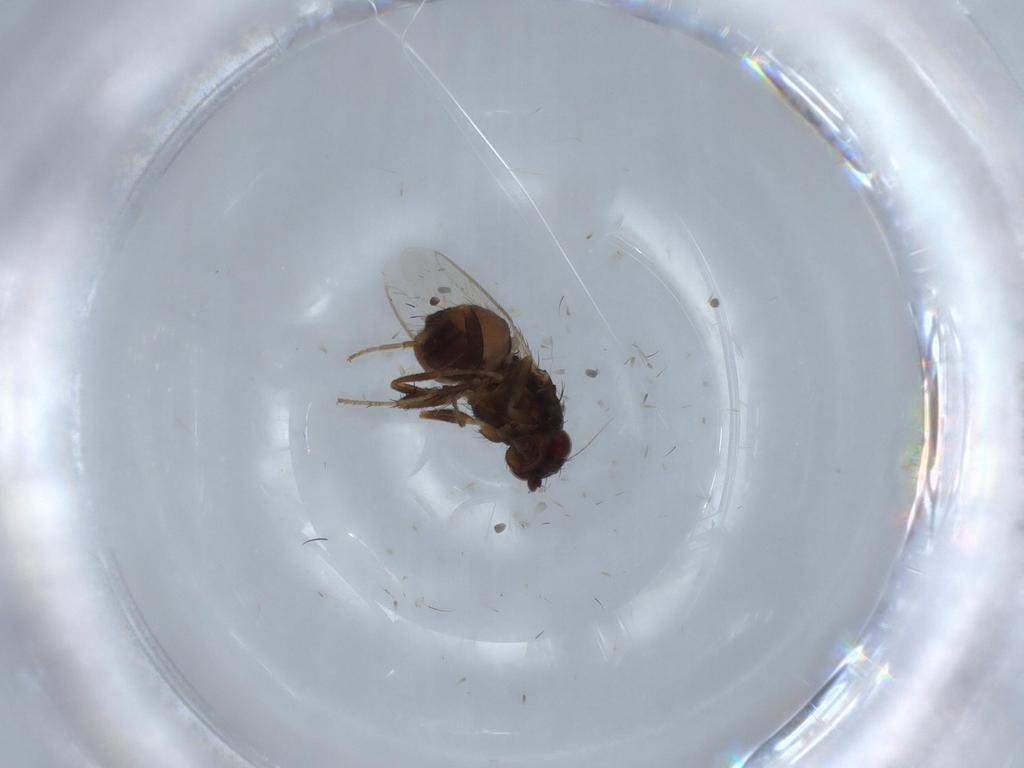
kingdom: Animalia
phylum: Arthropoda
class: Insecta
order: Diptera
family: Sphaeroceridae
